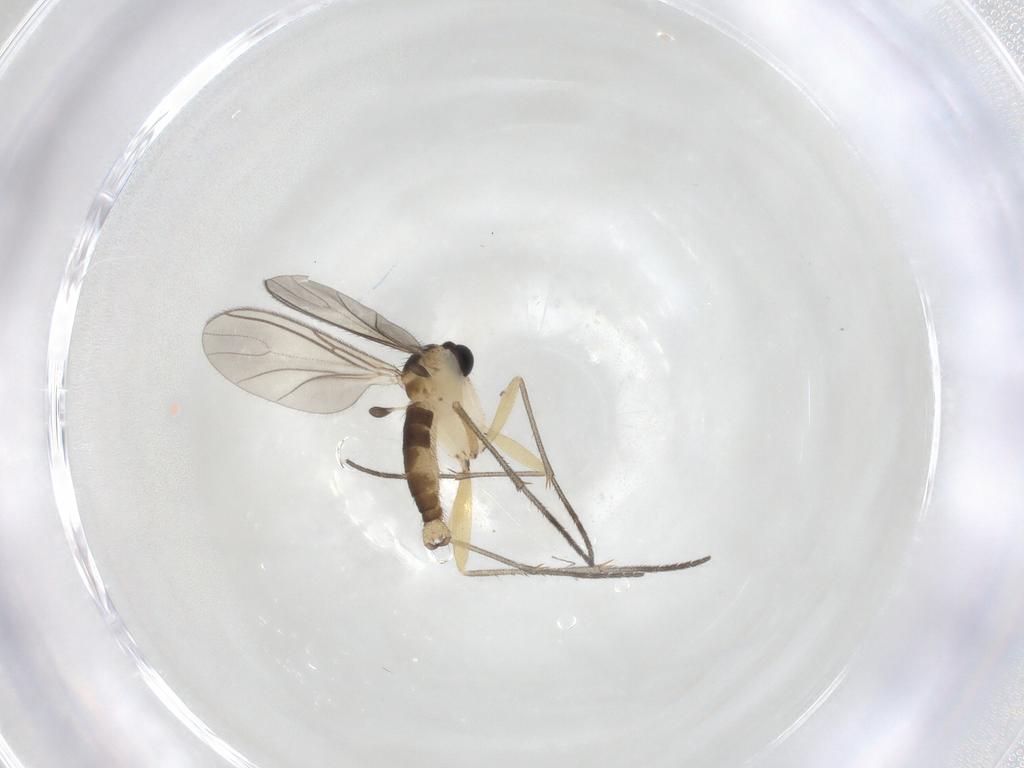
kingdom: Animalia
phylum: Arthropoda
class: Insecta
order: Diptera
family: Sciaridae
